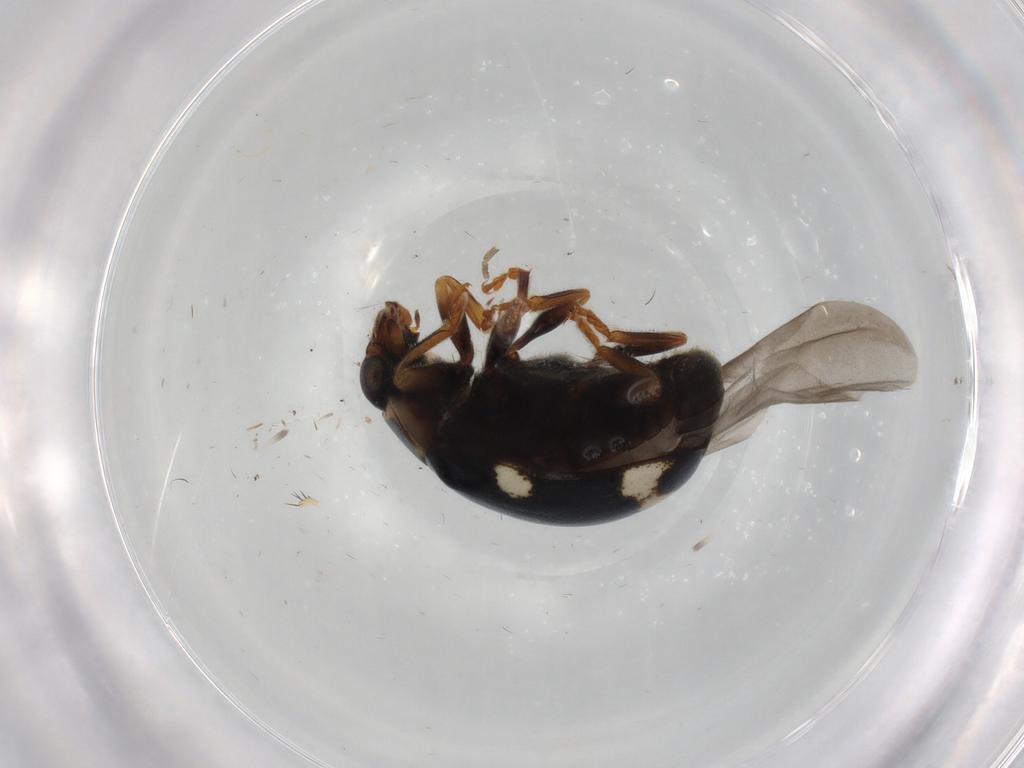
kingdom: Animalia
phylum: Arthropoda
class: Insecta
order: Coleoptera
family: Coccinellidae
